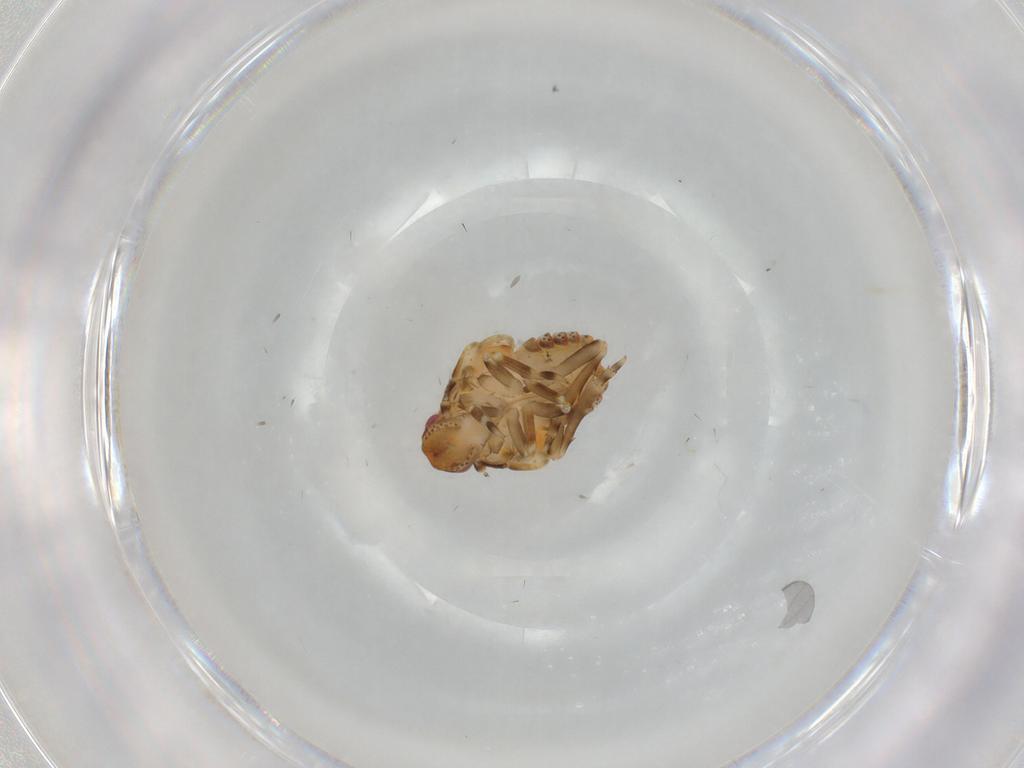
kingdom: Animalia
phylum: Arthropoda
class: Insecta
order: Hemiptera
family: Flatidae
